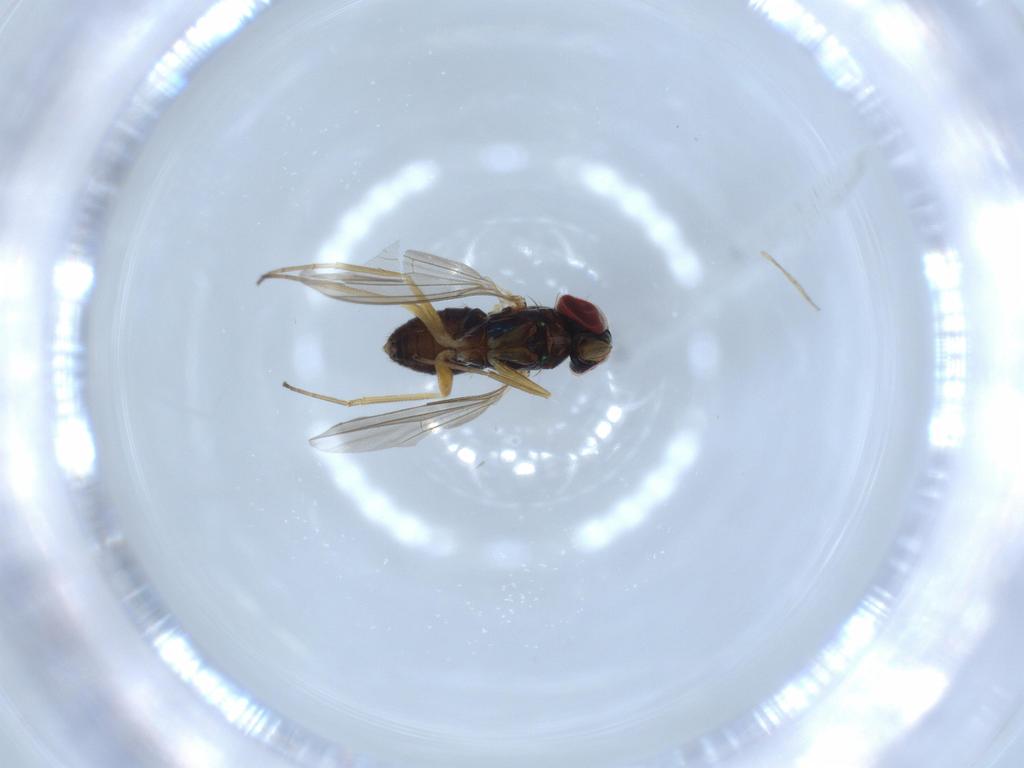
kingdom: Animalia
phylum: Arthropoda
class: Insecta
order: Diptera
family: Dolichopodidae
